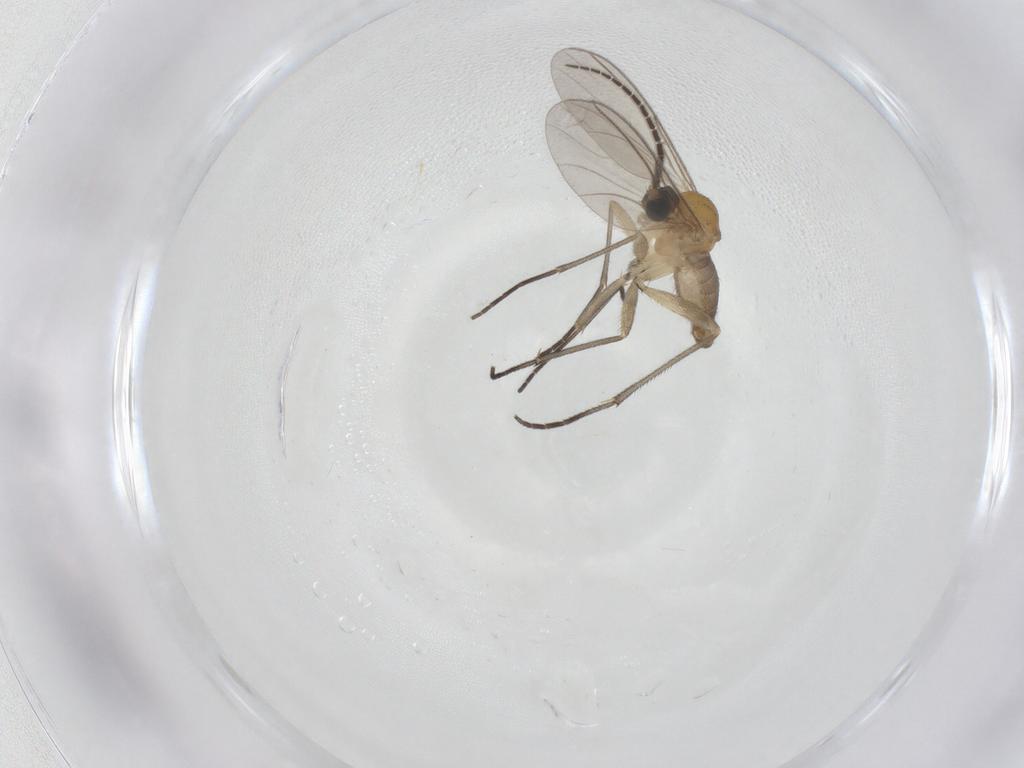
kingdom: Animalia
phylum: Arthropoda
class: Insecta
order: Diptera
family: Sciaridae
